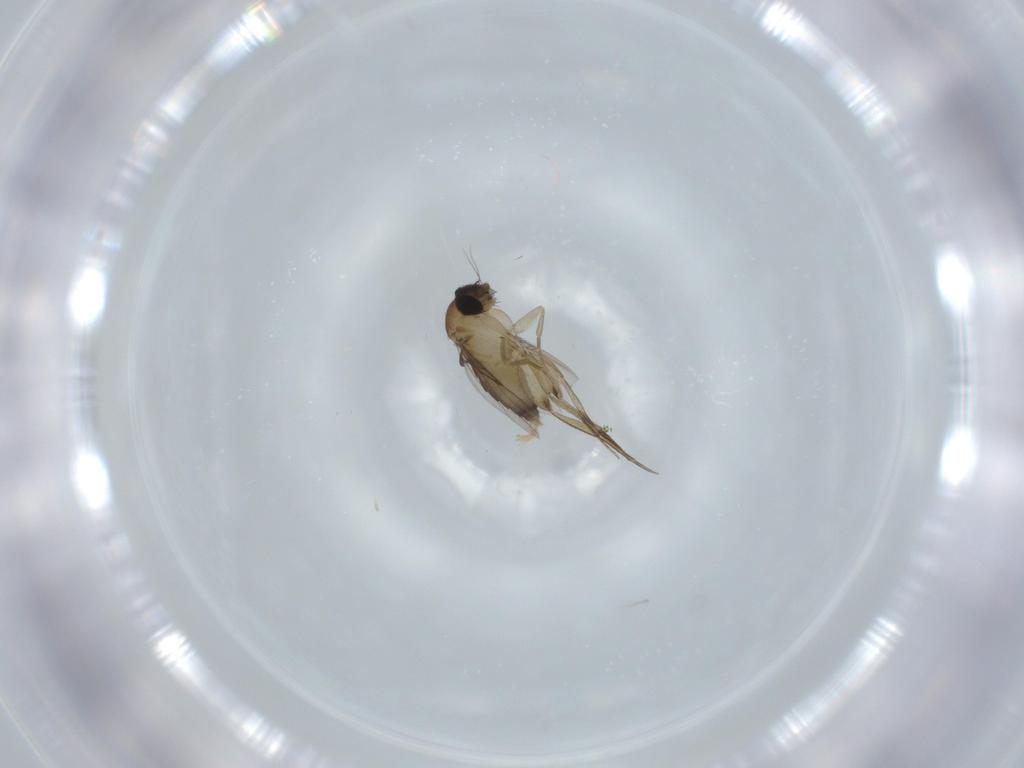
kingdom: Animalia
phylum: Arthropoda
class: Insecta
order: Diptera
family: Phoridae
